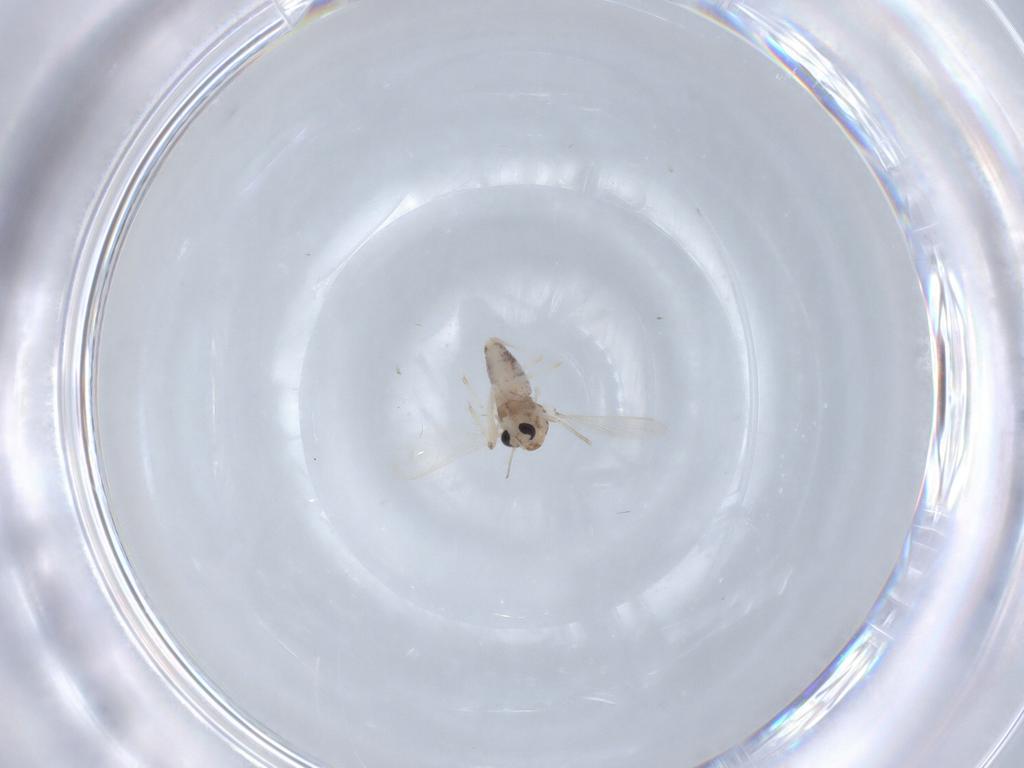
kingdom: Animalia
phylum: Arthropoda
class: Insecta
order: Diptera
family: Chironomidae
